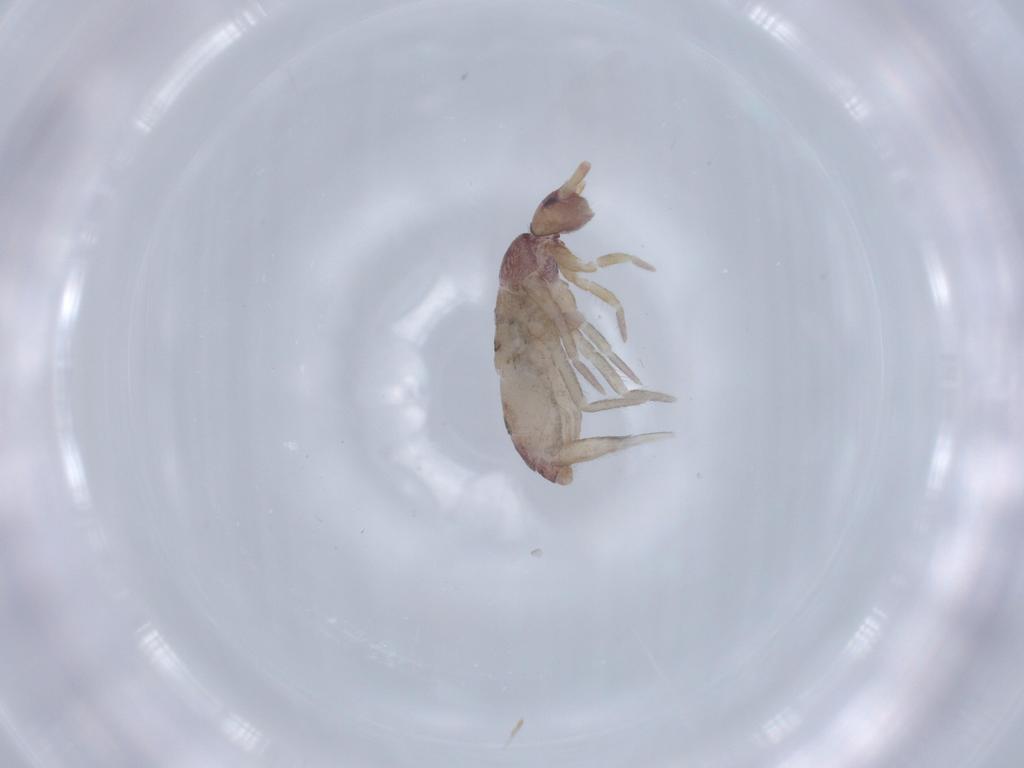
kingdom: Animalia
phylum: Arthropoda
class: Collembola
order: Entomobryomorpha
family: Tomoceridae
